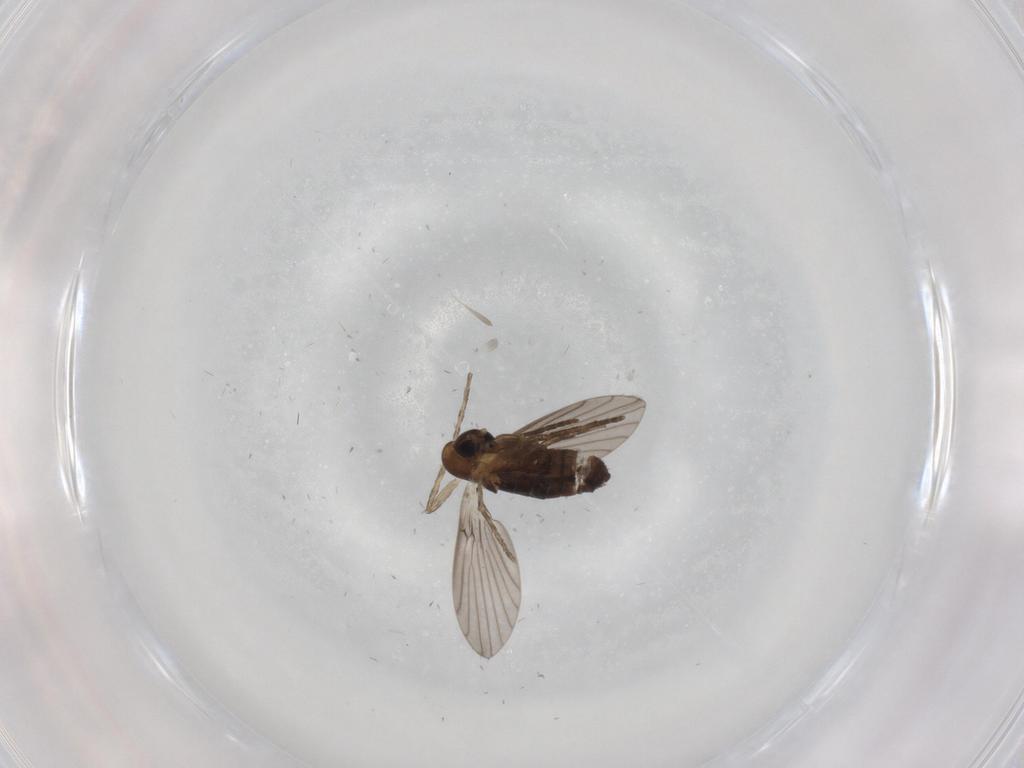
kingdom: Animalia
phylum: Arthropoda
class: Insecta
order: Diptera
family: Psychodidae
